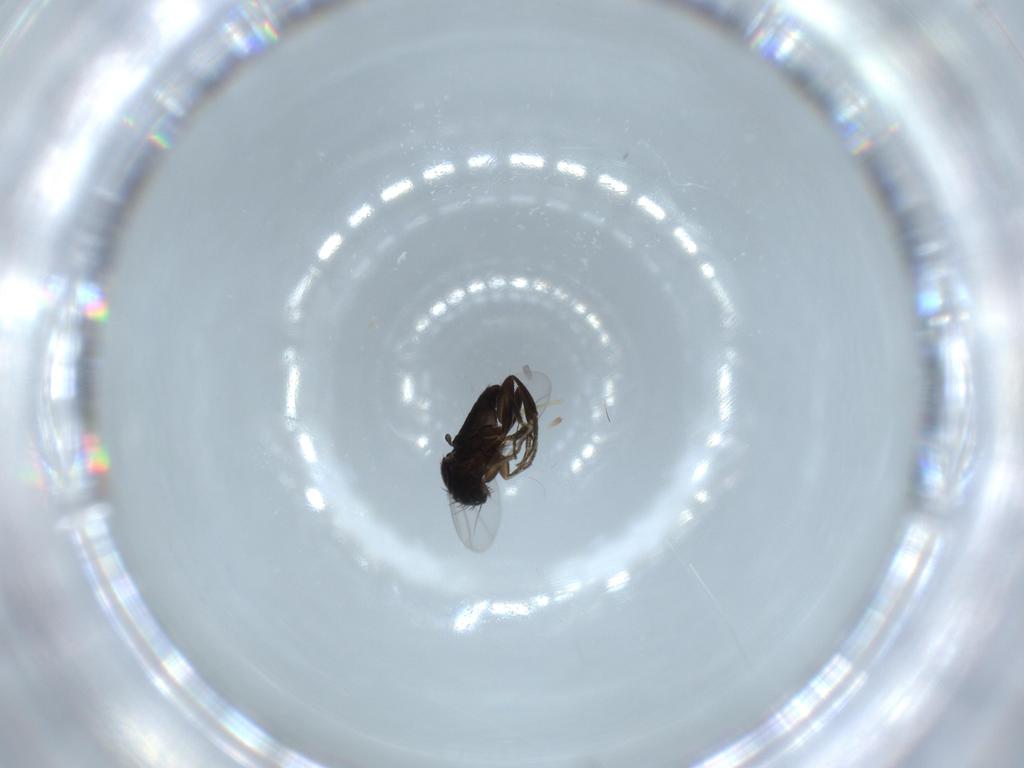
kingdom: Animalia
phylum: Arthropoda
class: Insecta
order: Diptera
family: Cecidomyiidae
